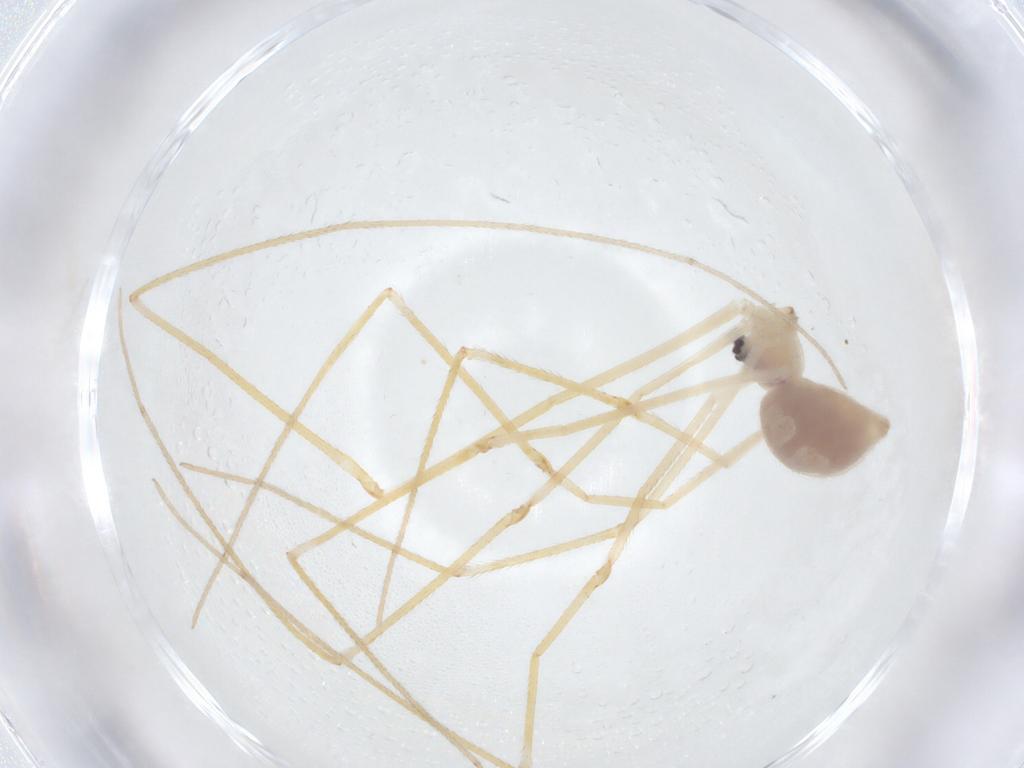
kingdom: Animalia
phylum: Arthropoda
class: Arachnida
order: Araneae
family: Pholcidae
